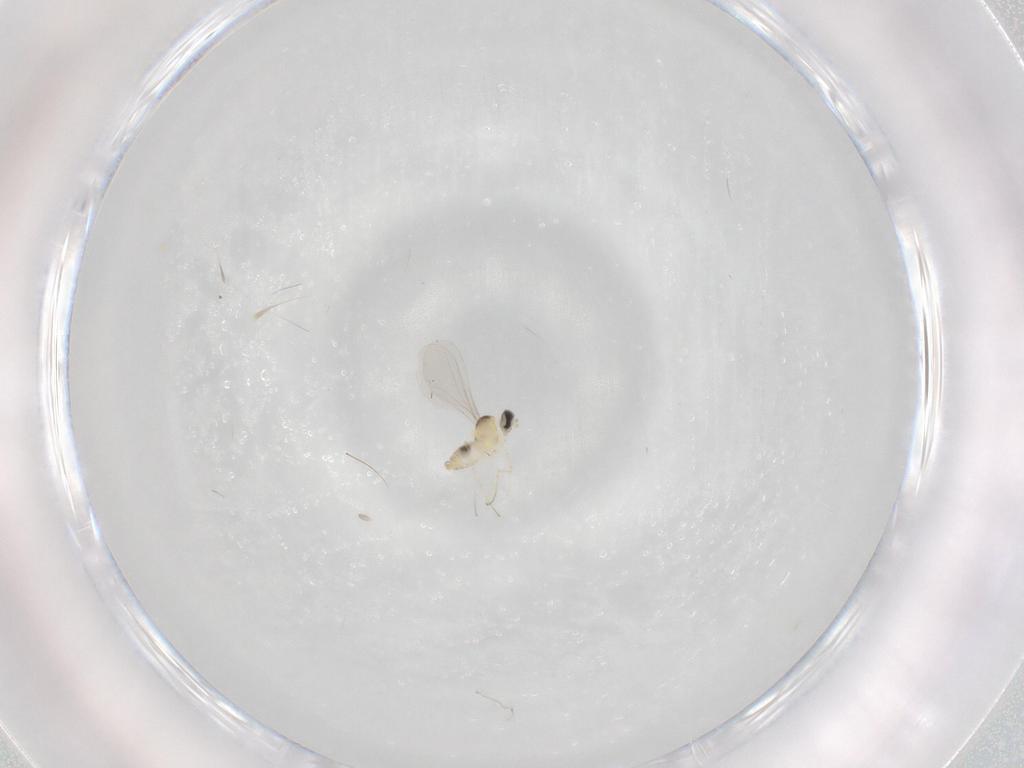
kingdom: Animalia
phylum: Arthropoda
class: Insecta
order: Diptera
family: Cecidomyiidae
